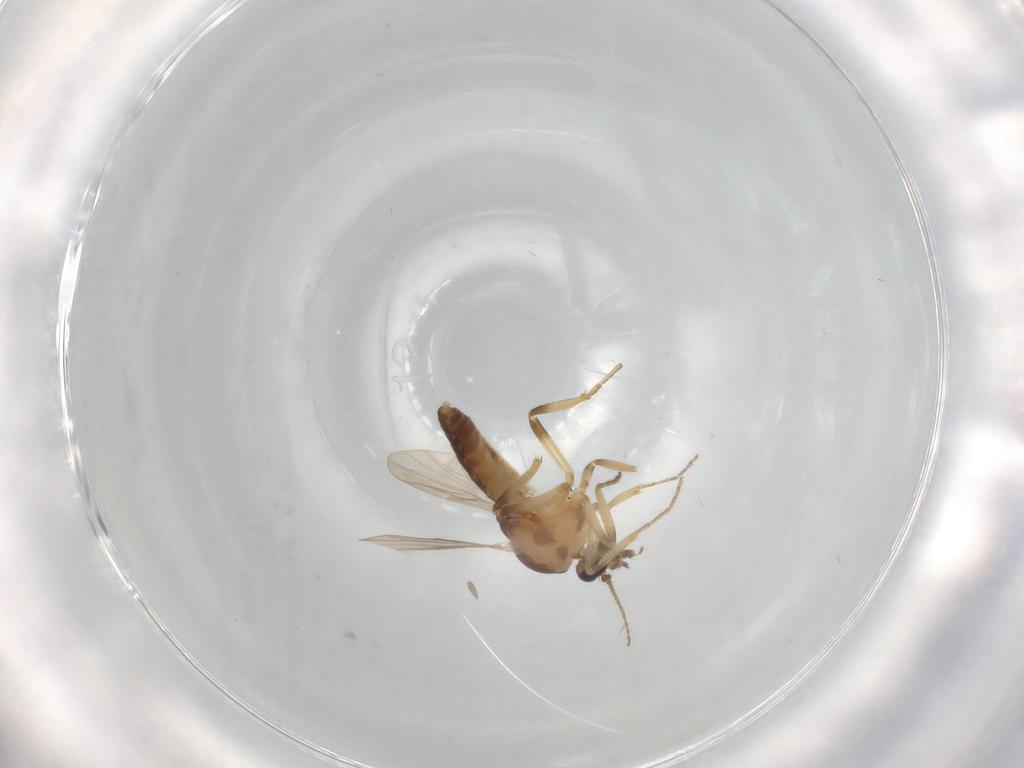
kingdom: Animalia
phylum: Arthropoda
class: Insecta
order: Diptera
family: Ceratopogonidae
